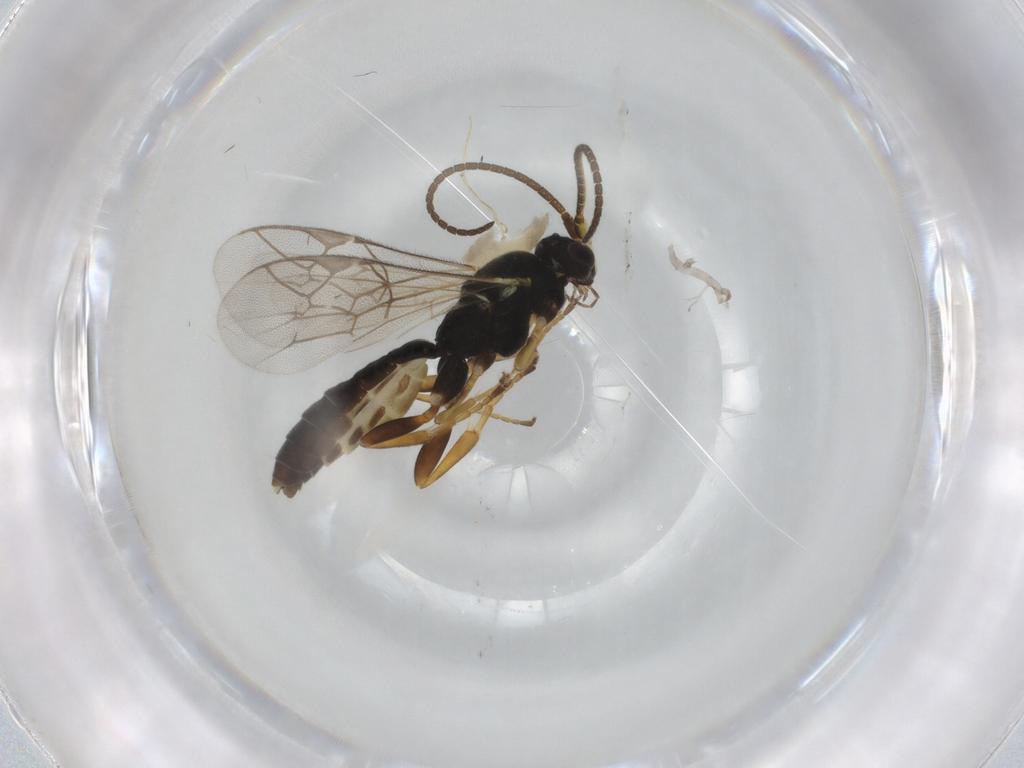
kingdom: Animalia
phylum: Arthropoda
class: Insecta
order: Hymenoptera
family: Ichneumonidae
